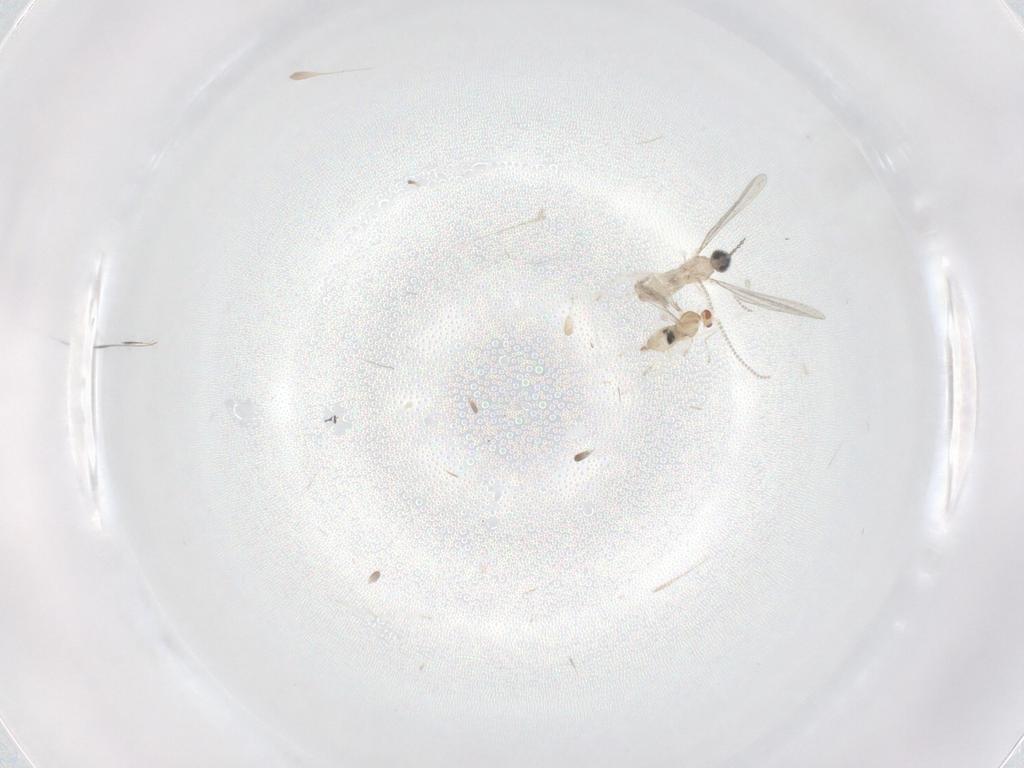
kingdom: Animalia
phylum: Arthropoda
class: Insecta
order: Diptera
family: Cecidomyiidae
